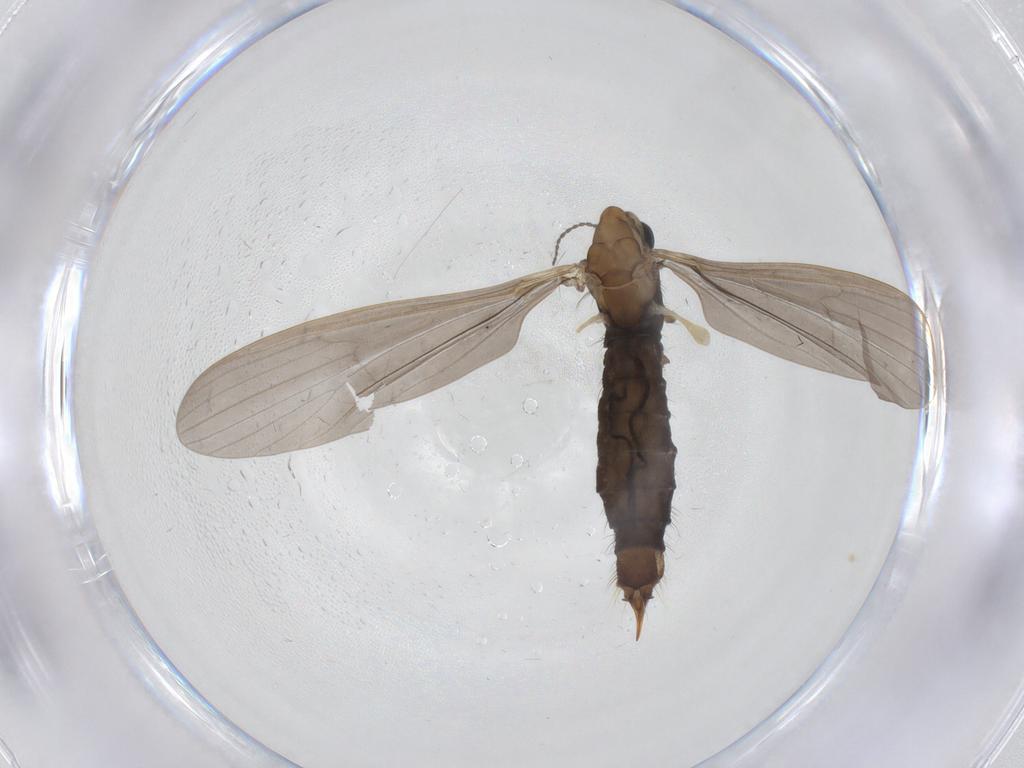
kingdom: Animalia
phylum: Arthropoda
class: Insecta
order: Diptera
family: Limoniidae
